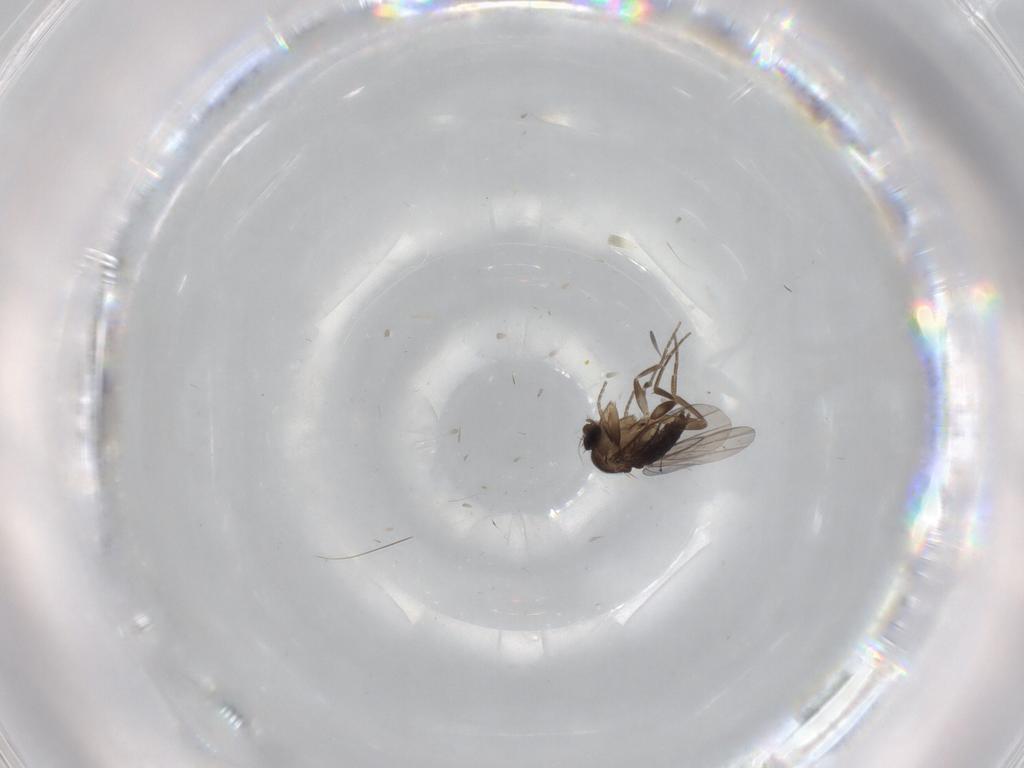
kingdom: Animalia
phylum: Arthropoda
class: Insecta
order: Diptera
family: Phoridae
